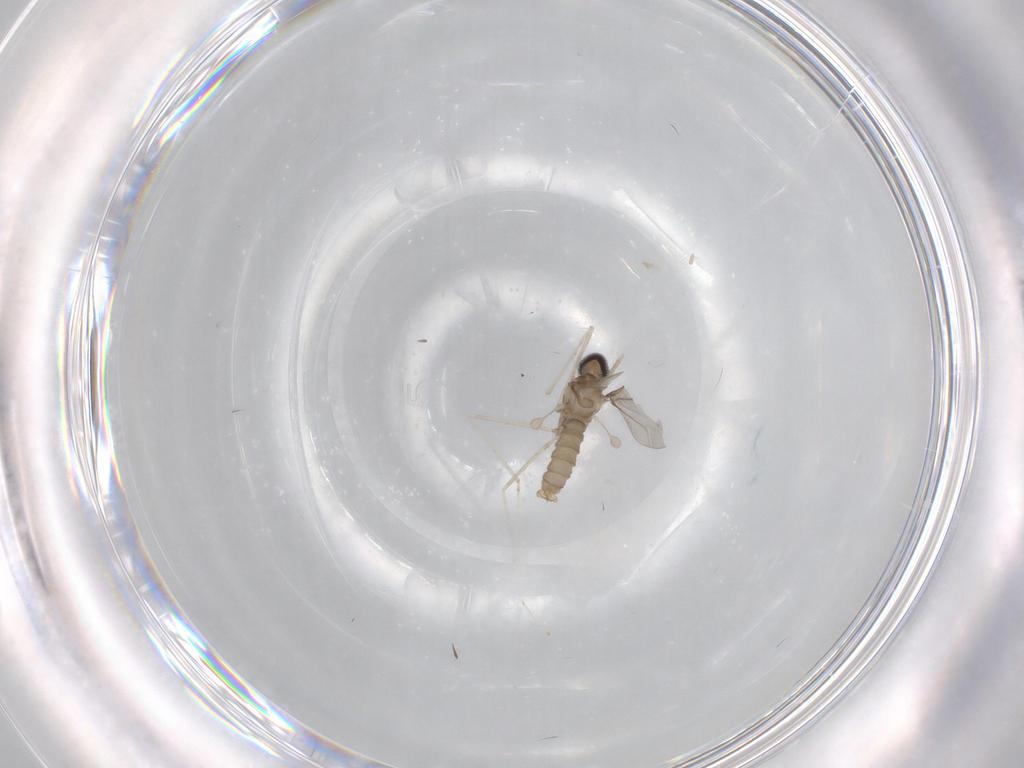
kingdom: Animalia
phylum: Arthropoda
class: Insecta
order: Diptera
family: Cecidomyiidae
